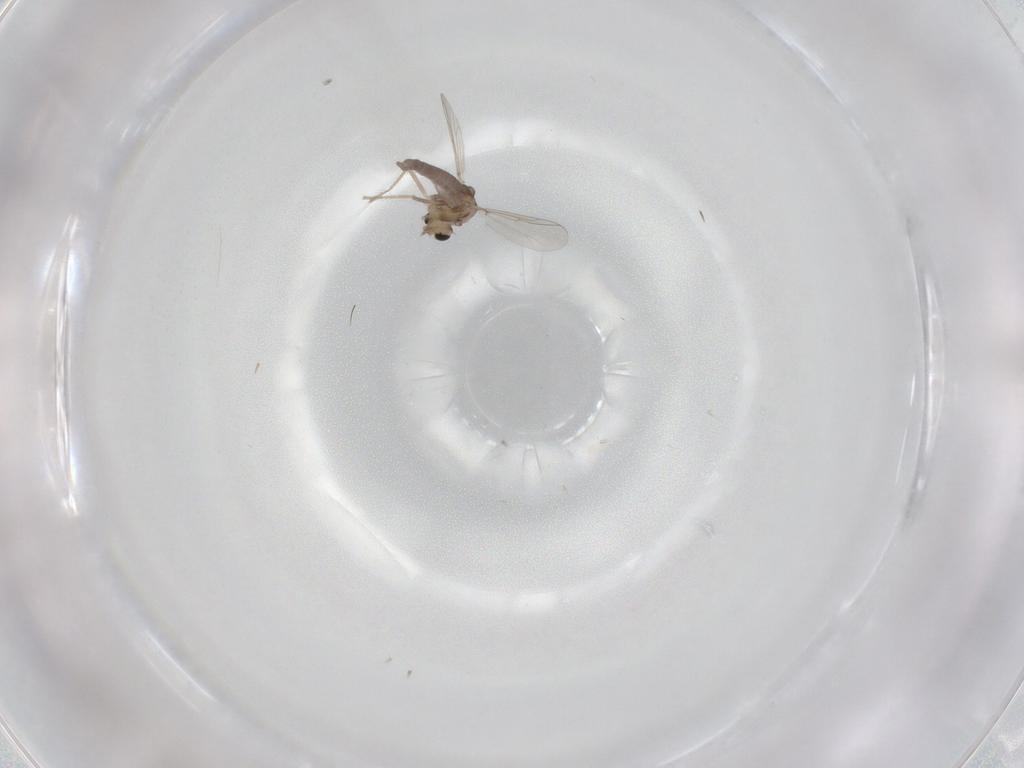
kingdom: Animalia
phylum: Arthropoda
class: Insecta
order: Diptera
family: Chironomidae
